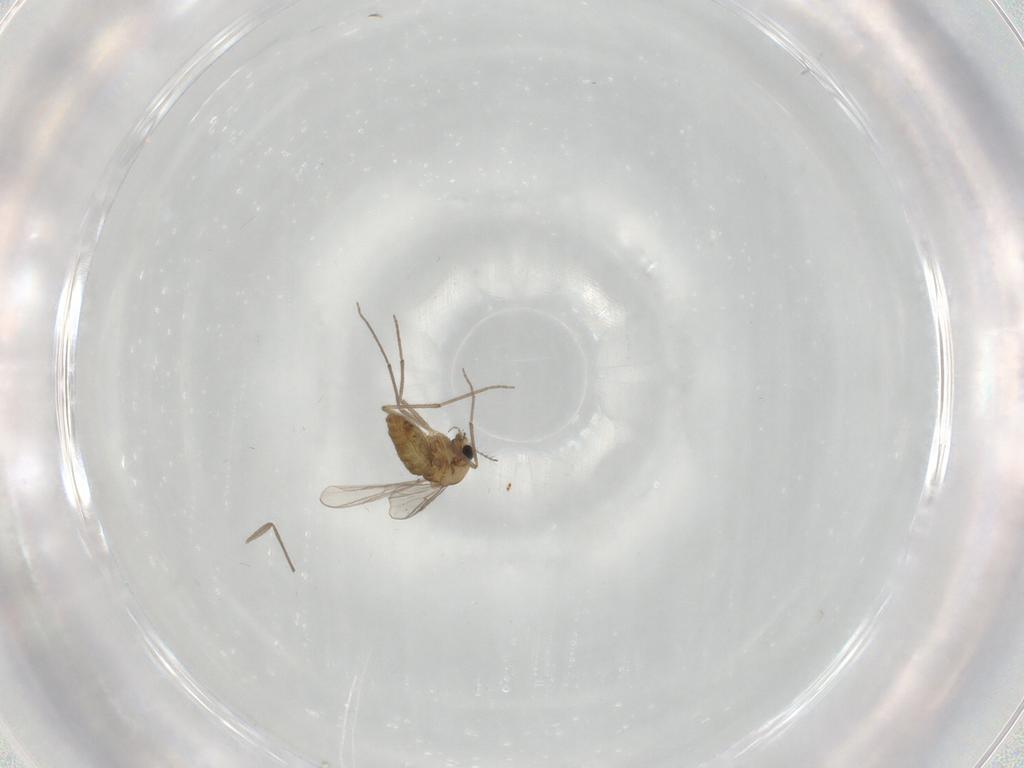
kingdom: Animalia
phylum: Arthropoda
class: Insecta
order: Diptera
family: Chironomidae
